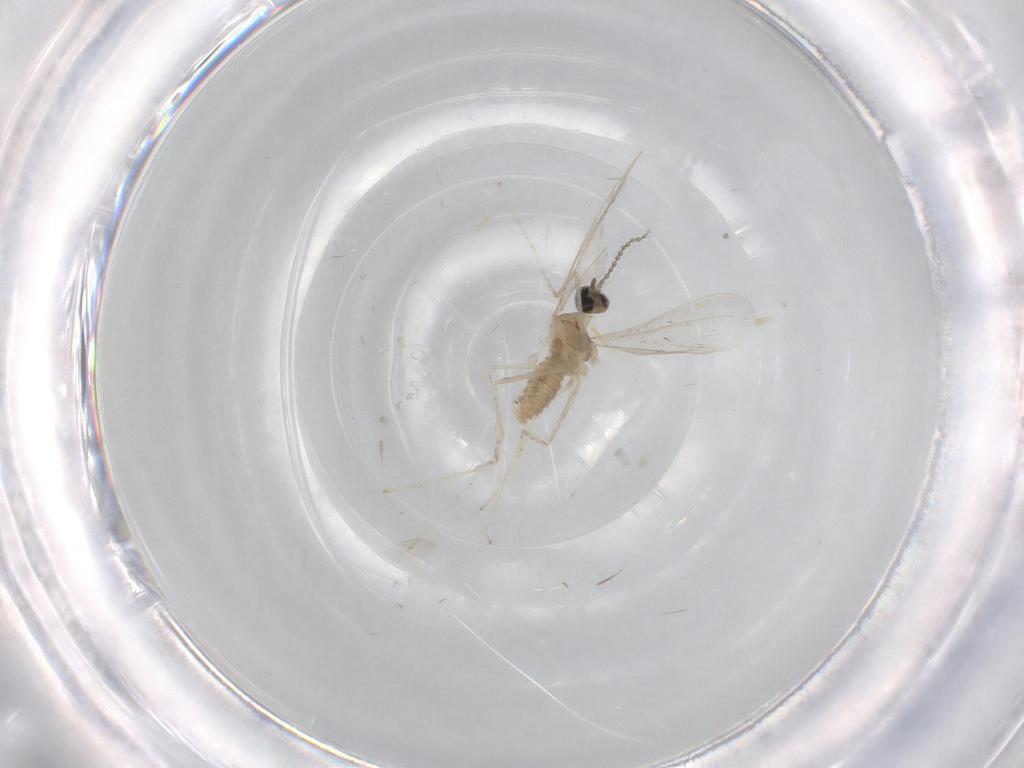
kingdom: Animalia
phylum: Arthropoda
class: Insecta
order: Diptera
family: Cecidomyiidae
